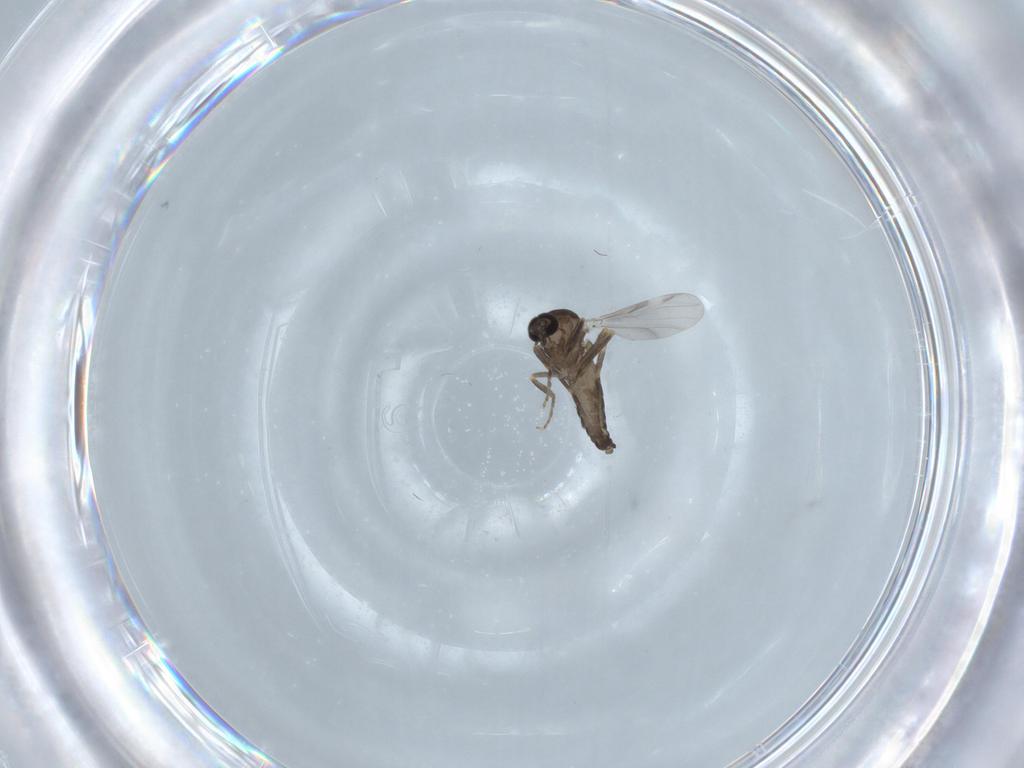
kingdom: Animalia
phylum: Arthropoda
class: Insecta
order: Diptera
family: Ceratopogonidae
